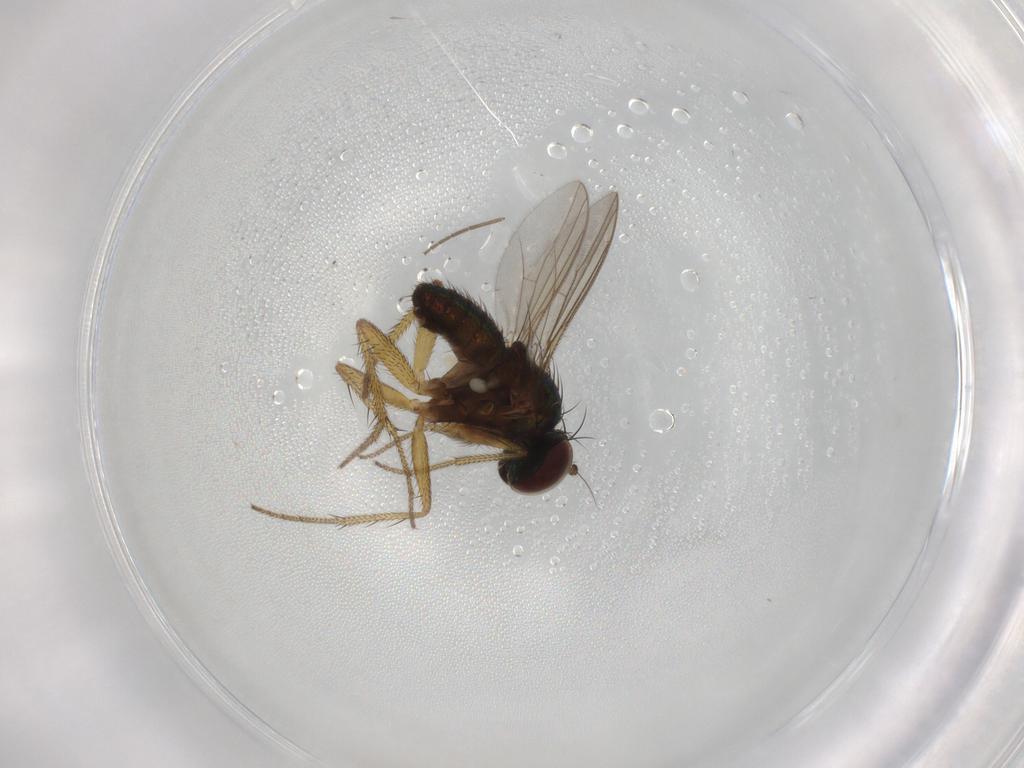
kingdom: Animalia
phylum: Arthropoda
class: Insecta
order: Diptera
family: Chironomidae
